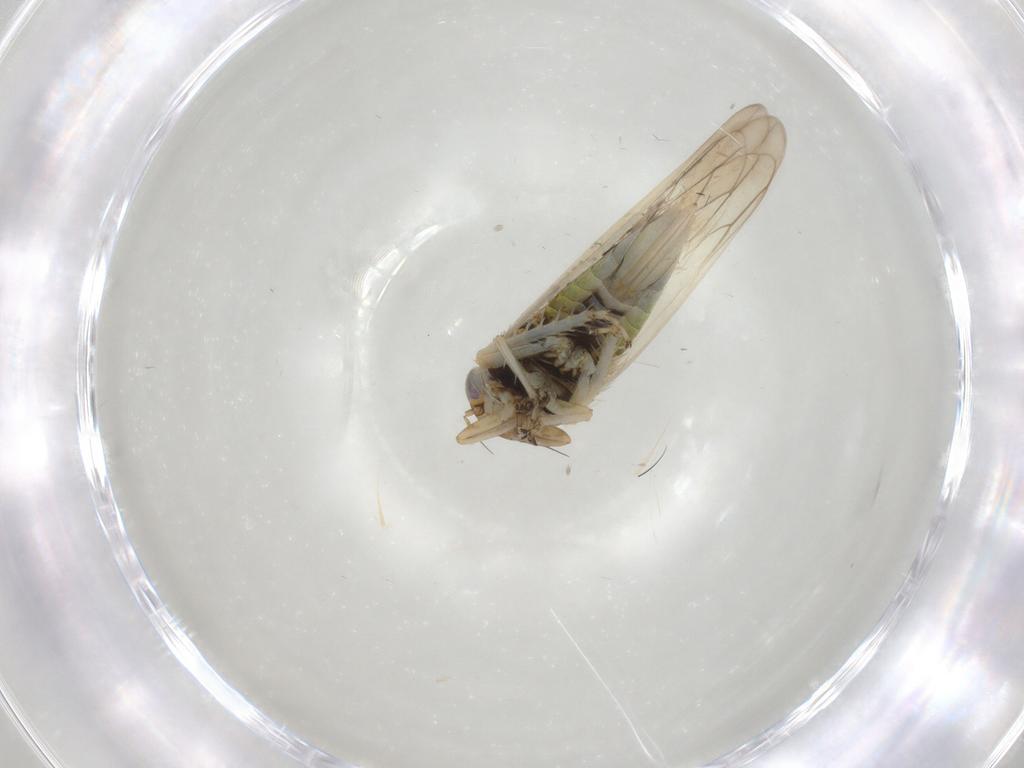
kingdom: Animalia
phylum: Arthropoda
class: Insecta
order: Hemiptera
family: Cicadellidae
